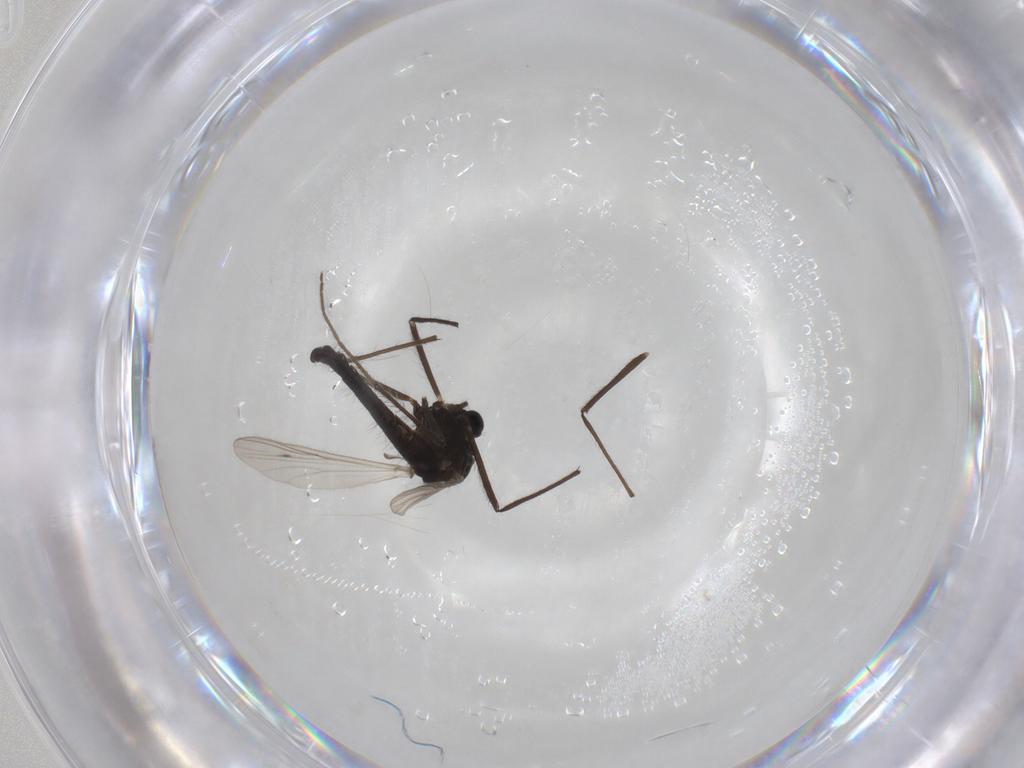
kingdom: Animalia
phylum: Arthropoda
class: Insecta
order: Diptera
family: Chironomidae
